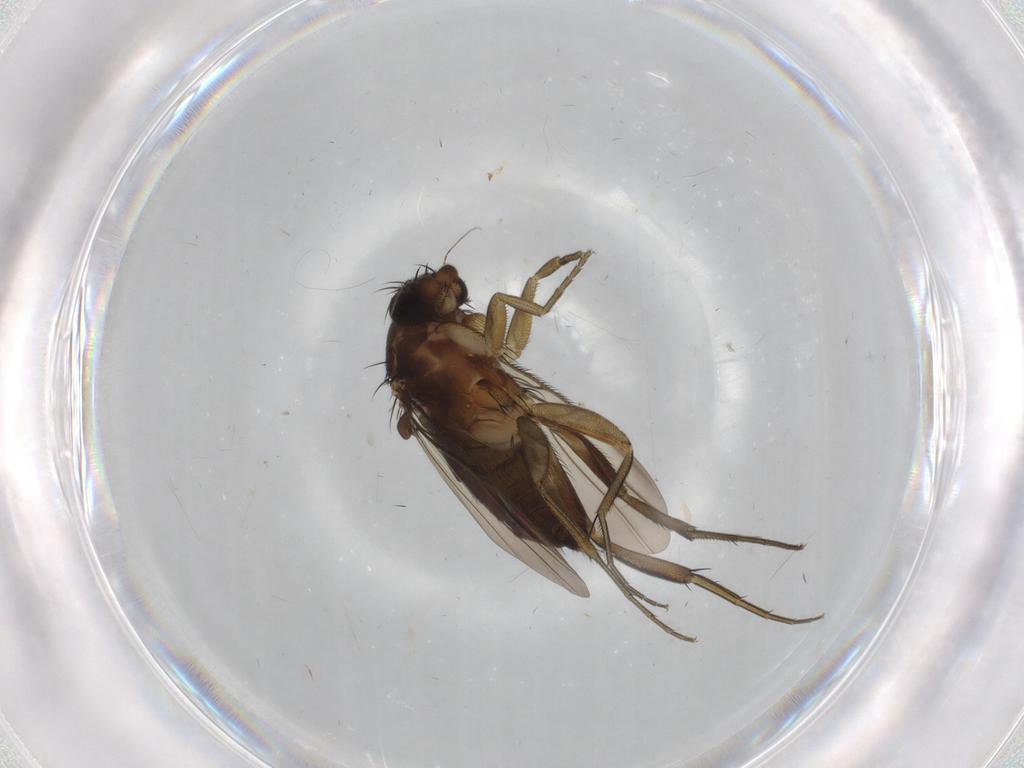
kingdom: Animalia
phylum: Arthropoda
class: Insecta
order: Diptera
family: Phoridae
